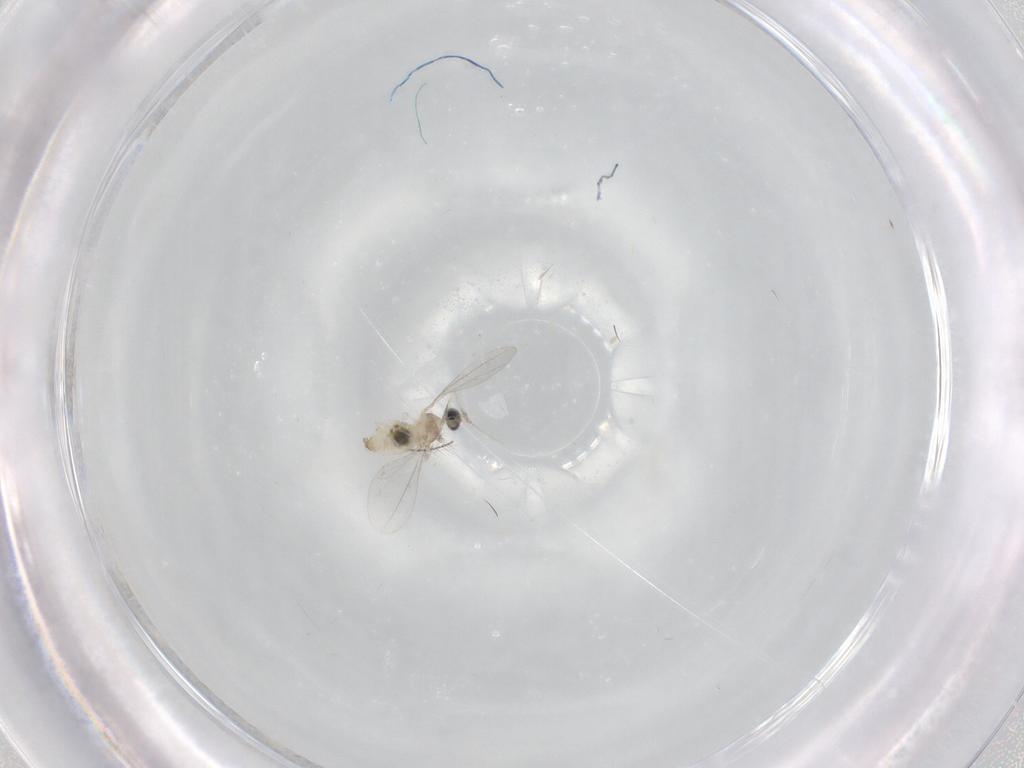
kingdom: Animalia
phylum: Arthropoda
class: Insecta
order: Diptera
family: Cecidomyiidae
